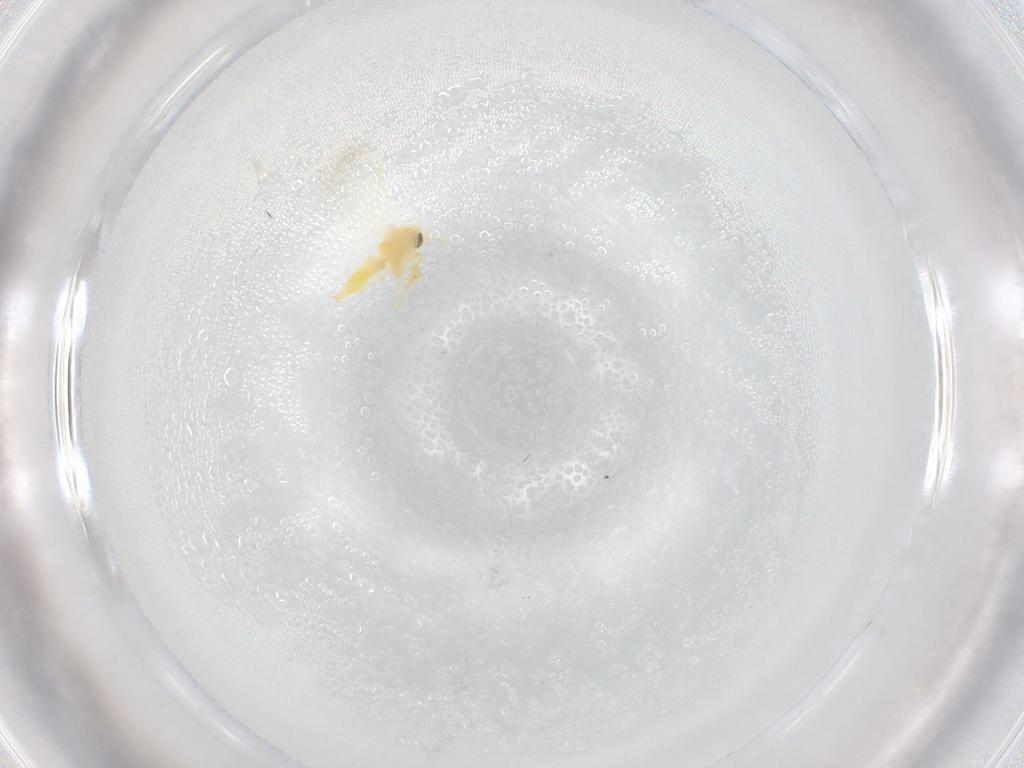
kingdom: Animalia
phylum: Arthropoda
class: Insecta
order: Hemiptera
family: Aleyrodidae
